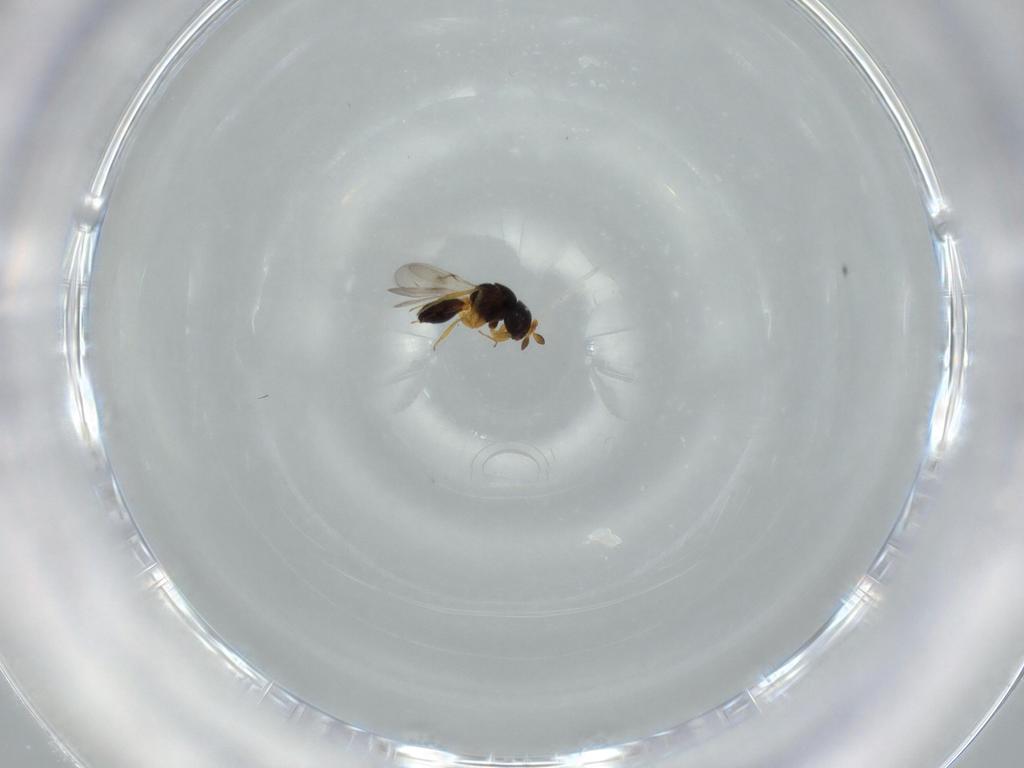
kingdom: Animalia
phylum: Arthropoda
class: Insecta
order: Hymenoptera
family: Scelionidae
